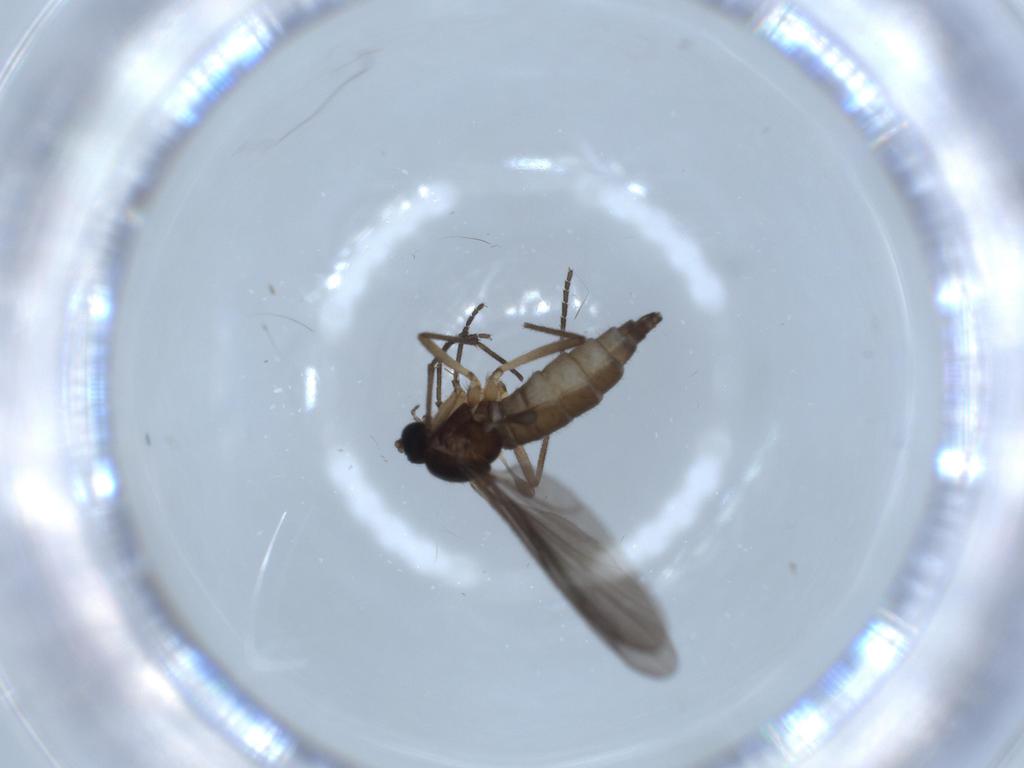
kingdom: Animalia
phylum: Arthropoda
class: Insecta
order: Diptera
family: Sciaridae
